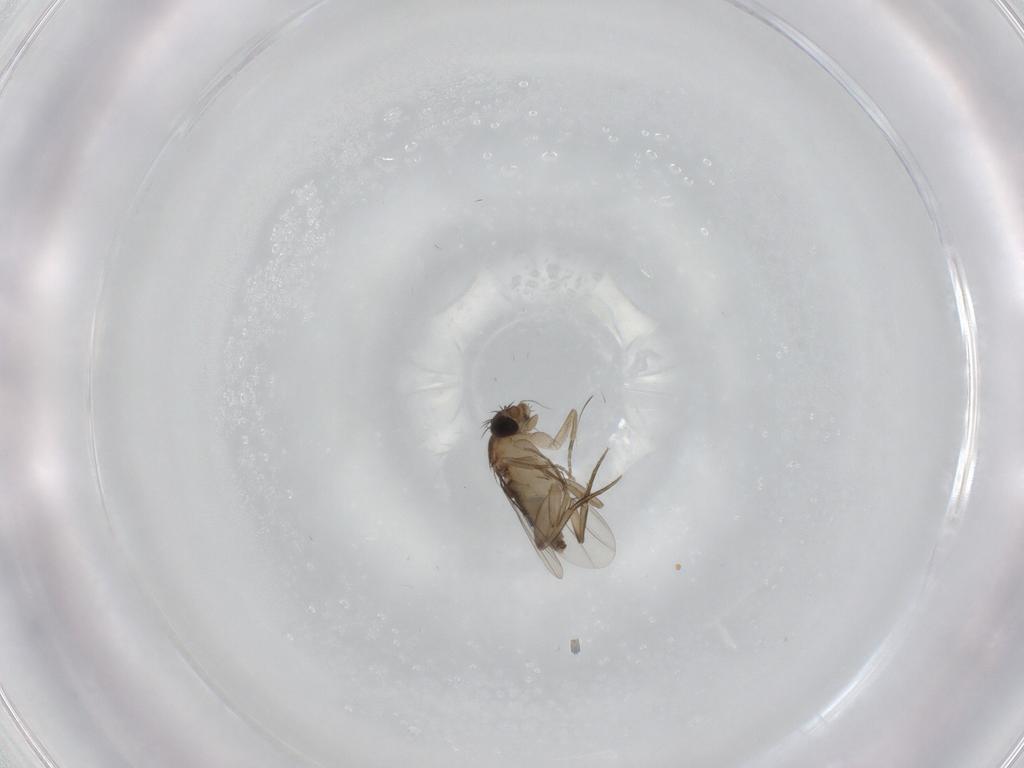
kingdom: Animalia
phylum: Arthropoda
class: Insecta
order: Diptera
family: Phoridae
